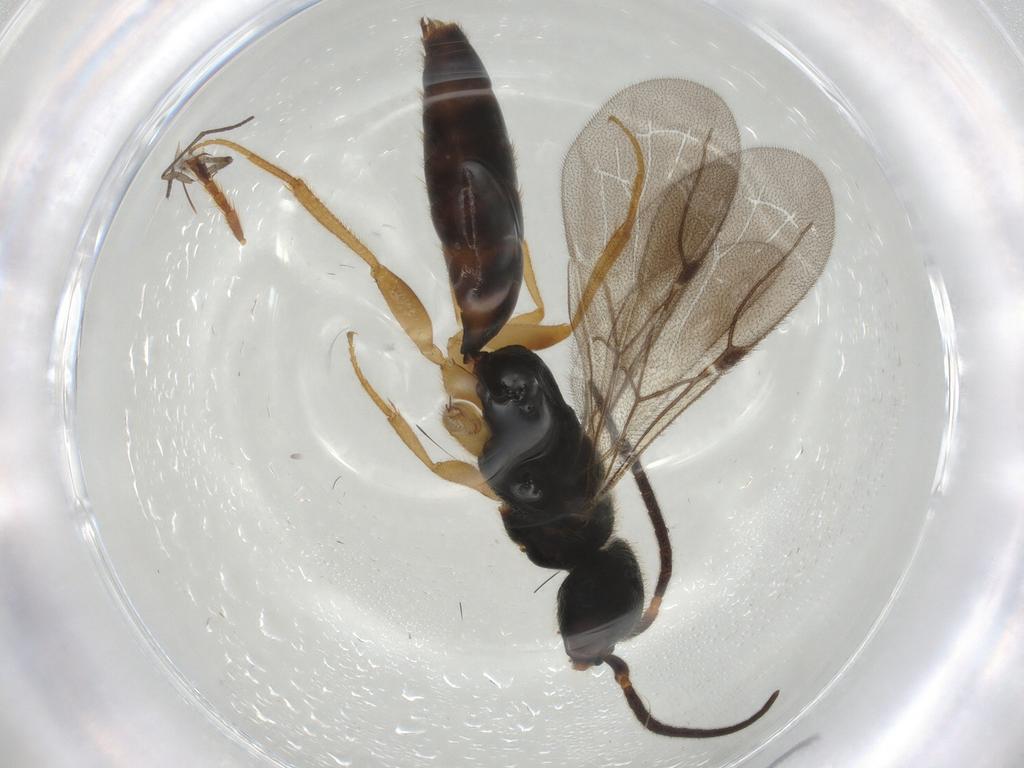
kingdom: Animalia
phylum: Arthropoda
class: Insecta
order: Hymenoptera
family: Bethylidae
